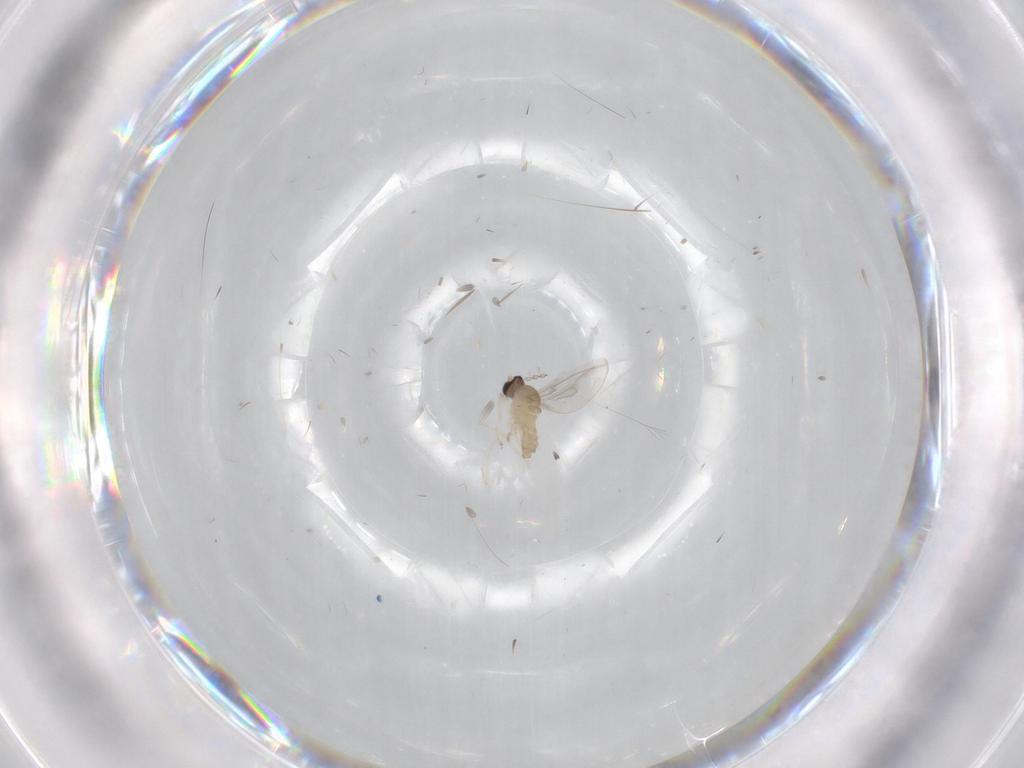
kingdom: Animalia
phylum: Arthropoda
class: Insecta
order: Diptera
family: Cecidomyiidae
